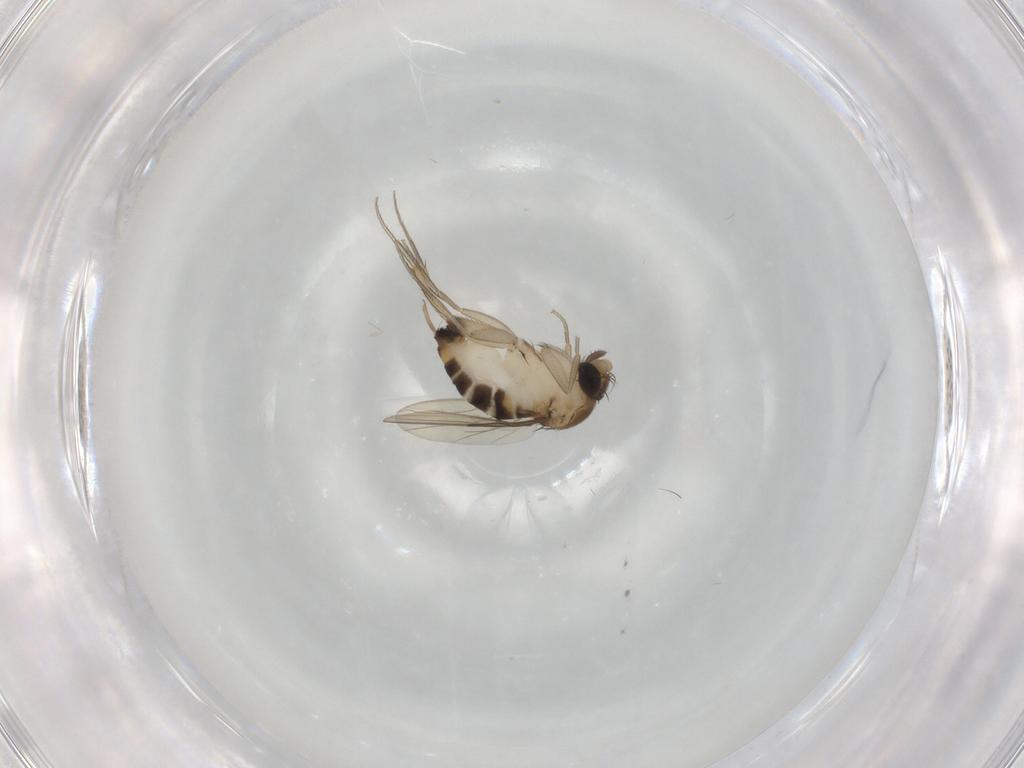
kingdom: Animalia
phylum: Arthropoda
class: Insecta
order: Diptera
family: Phoridae
